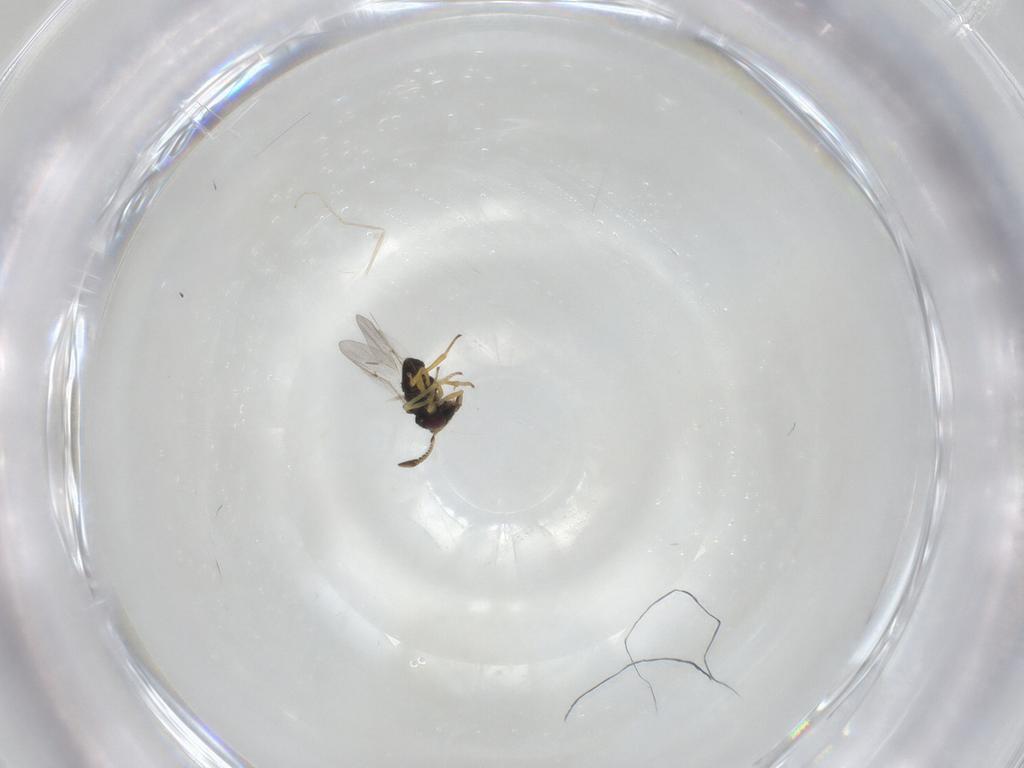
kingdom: Animalia
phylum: Arthropoda
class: Insecta
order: Hymenoptera
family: Encyrtidae
